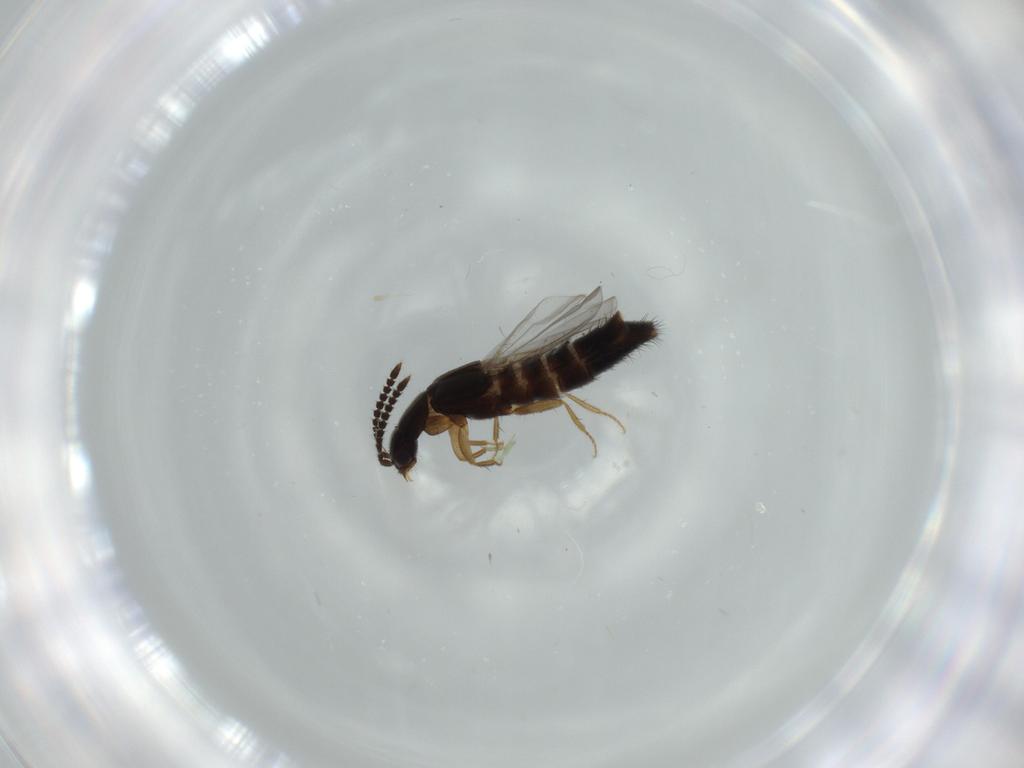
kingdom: Animalia
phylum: Arthropoda
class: Insecta
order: Coleoptera
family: Staphylinidae
